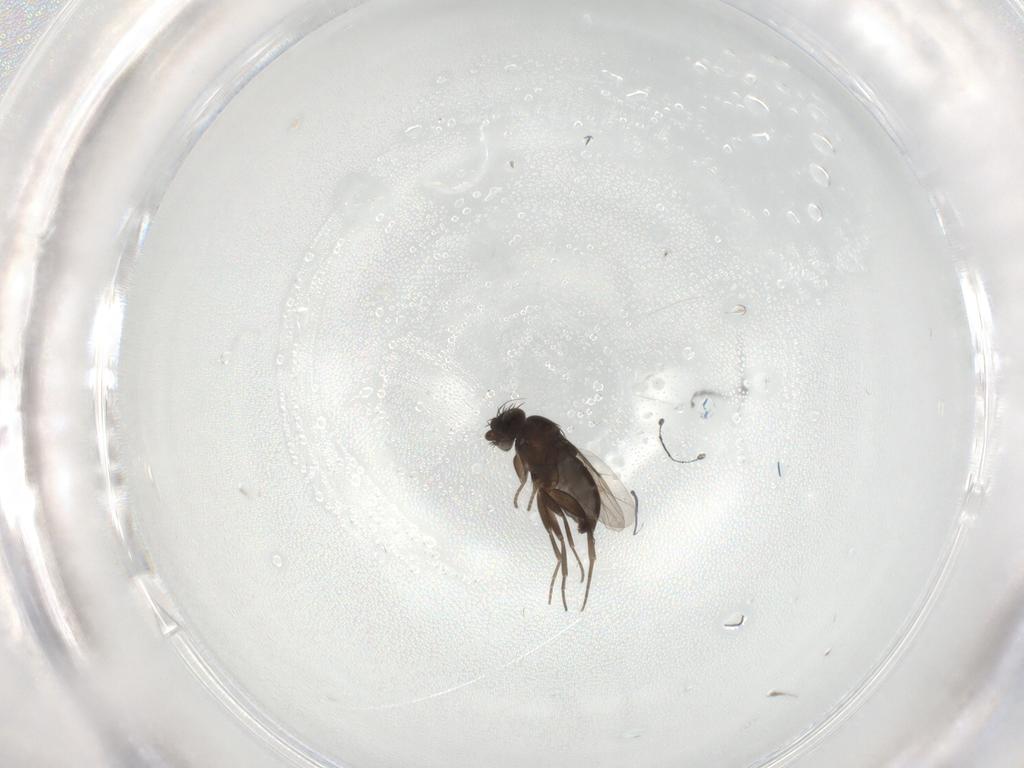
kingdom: Animalia
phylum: Arthropoda
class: Insecta
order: Diptera
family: Phoridae
